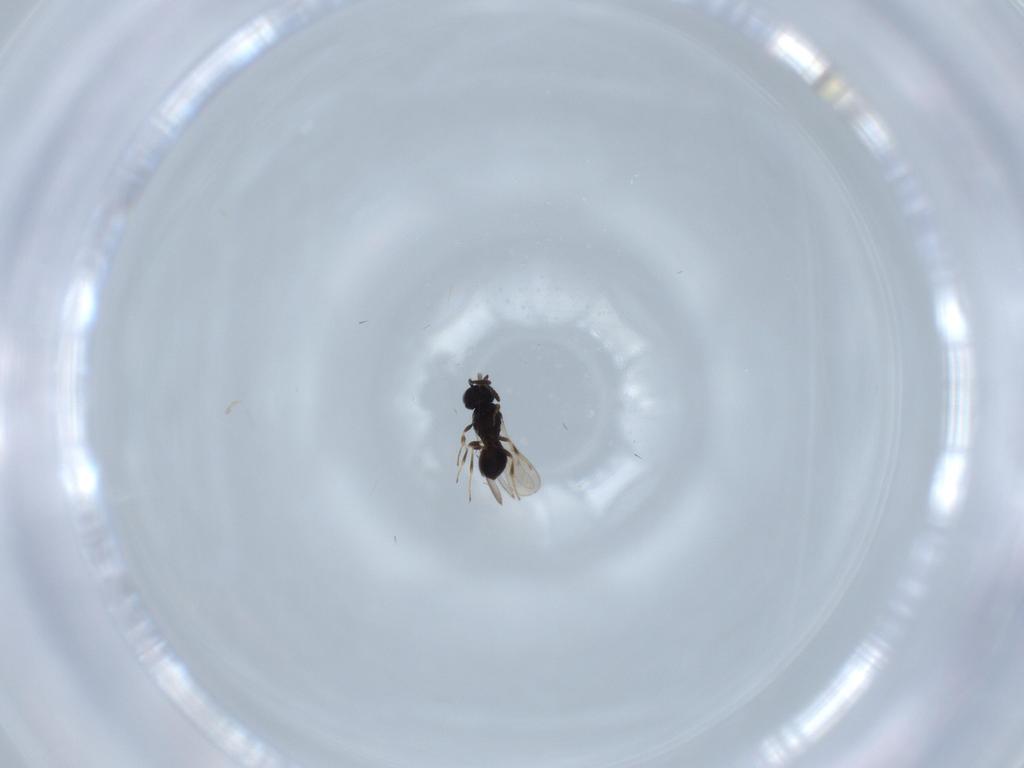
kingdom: Animalia
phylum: Arthropoda
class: Insecta
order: Hymenoptera
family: Scelionidae
